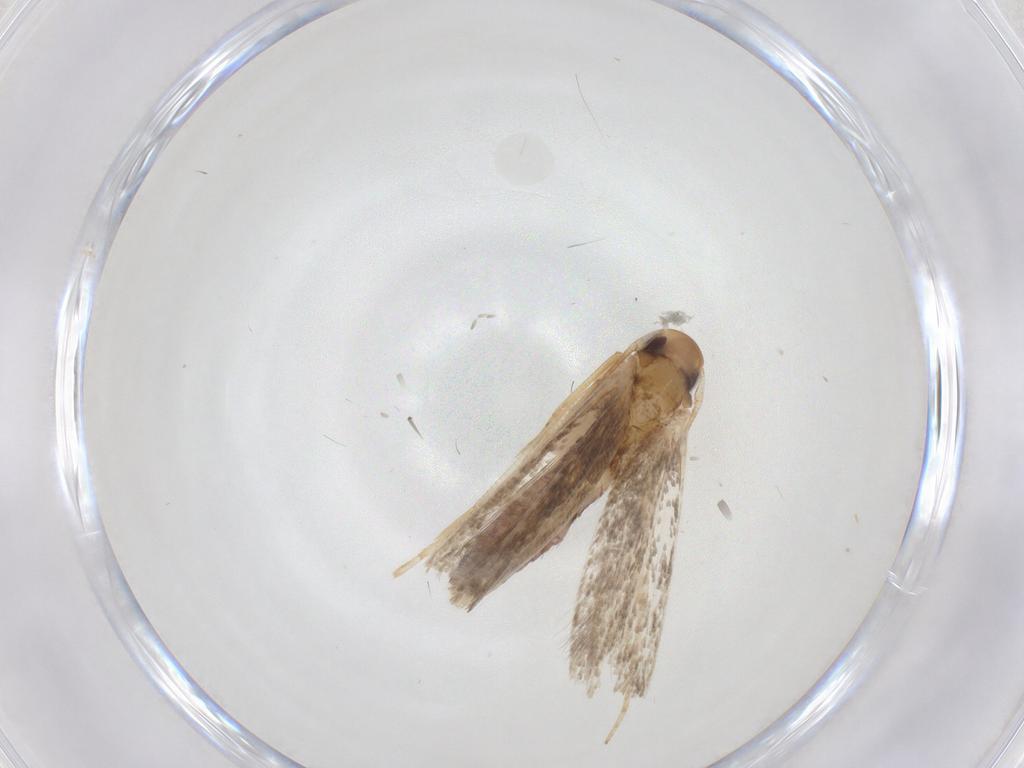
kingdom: Animalia
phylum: Arthropoda
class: Insecta
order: Lepidoptera
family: Momphidae
